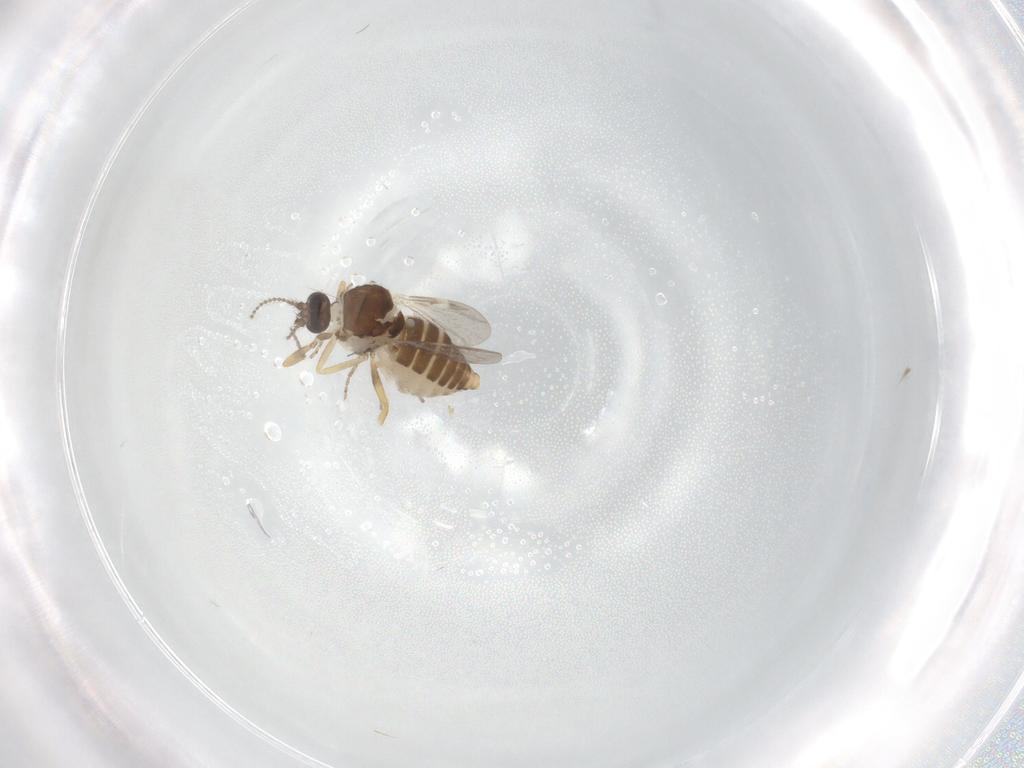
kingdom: Animalia
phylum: Arthropoda
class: Insecta
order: Diptera
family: Ceratopogonidae
